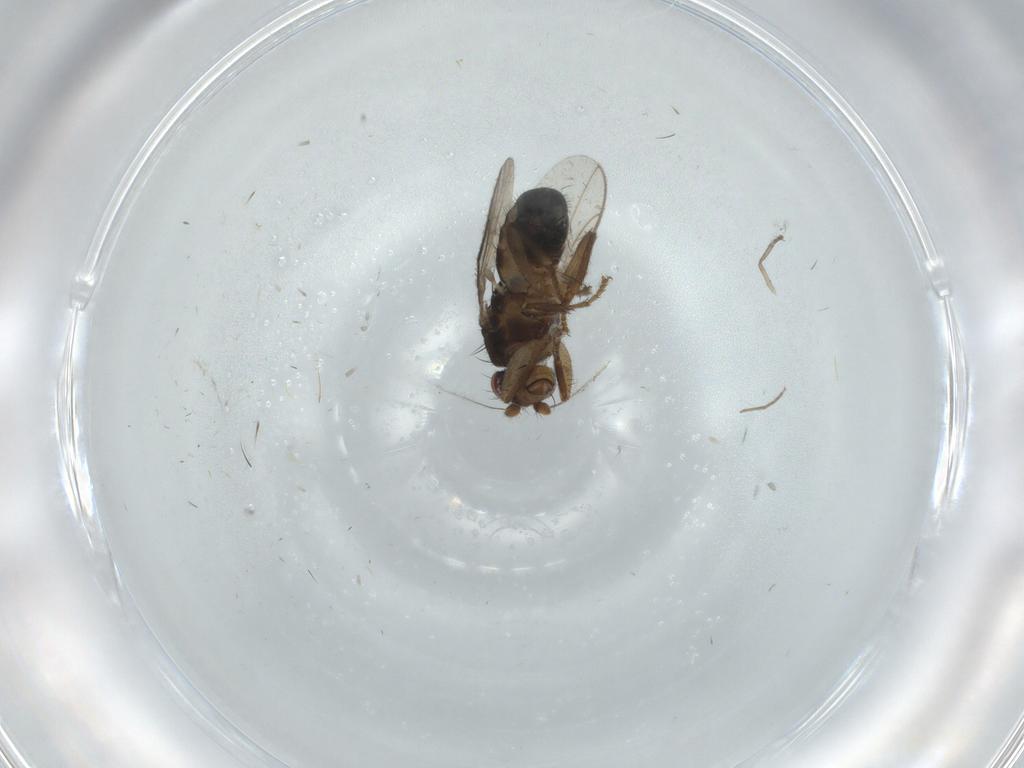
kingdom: Animalia
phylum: Arthropoda
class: Insecta
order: Diptera
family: Sphaeroceridae
